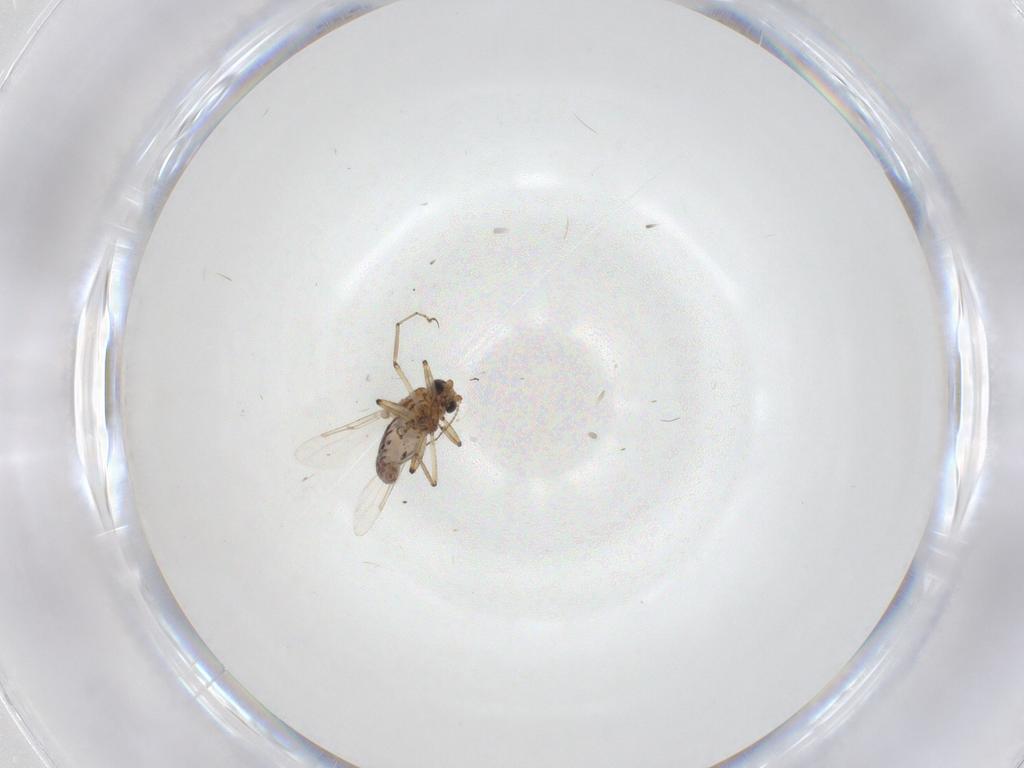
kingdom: Animalia
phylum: Arthropoda
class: Insecta
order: Diptera
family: Ceratopogonidae
